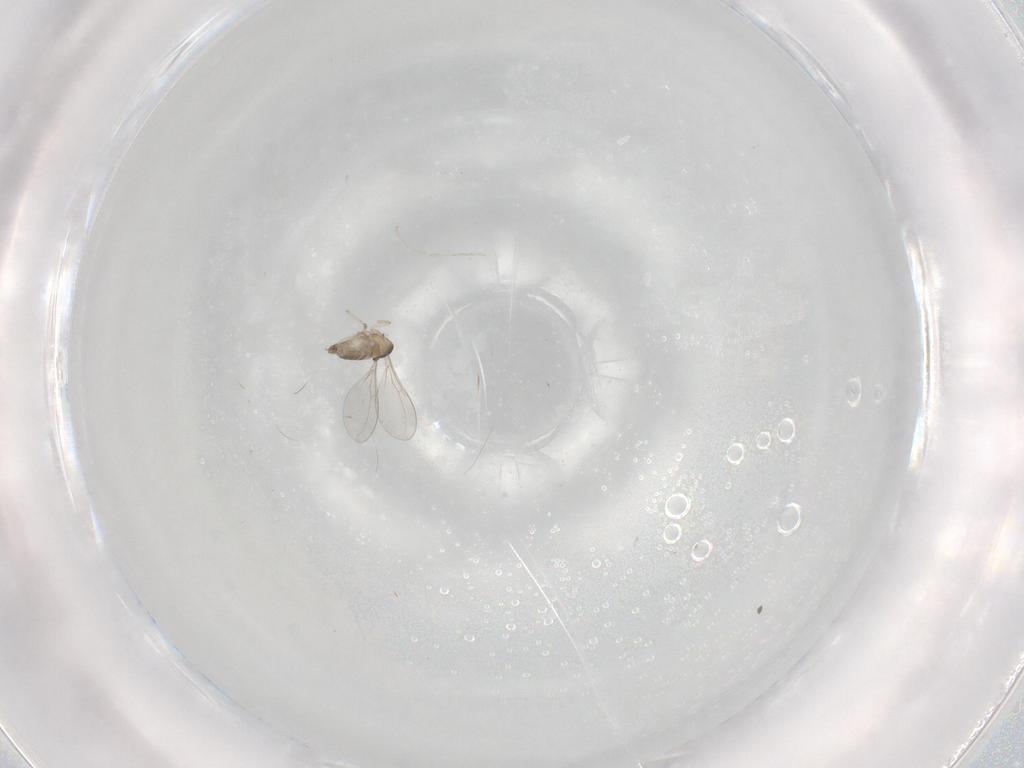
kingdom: Animalia
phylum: Arthropoda
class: Insecta
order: Diptera
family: Cecidomyiidae
